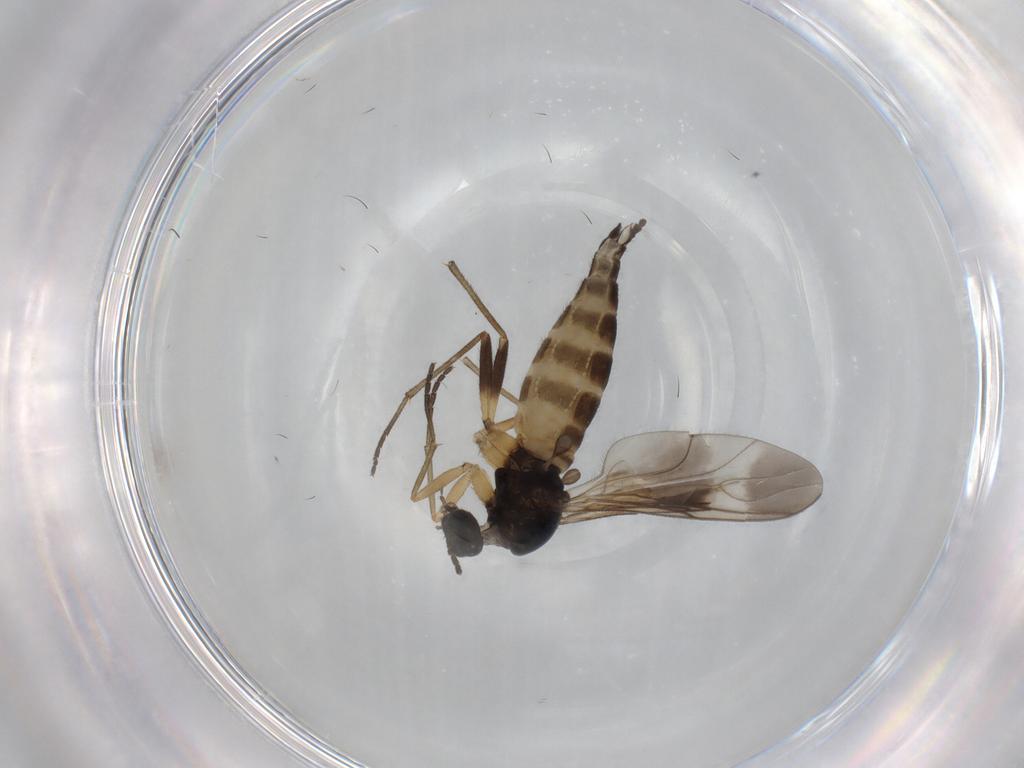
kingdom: Animalia
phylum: Arthropoda
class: Insecta
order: Diptera
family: Sciaridae
